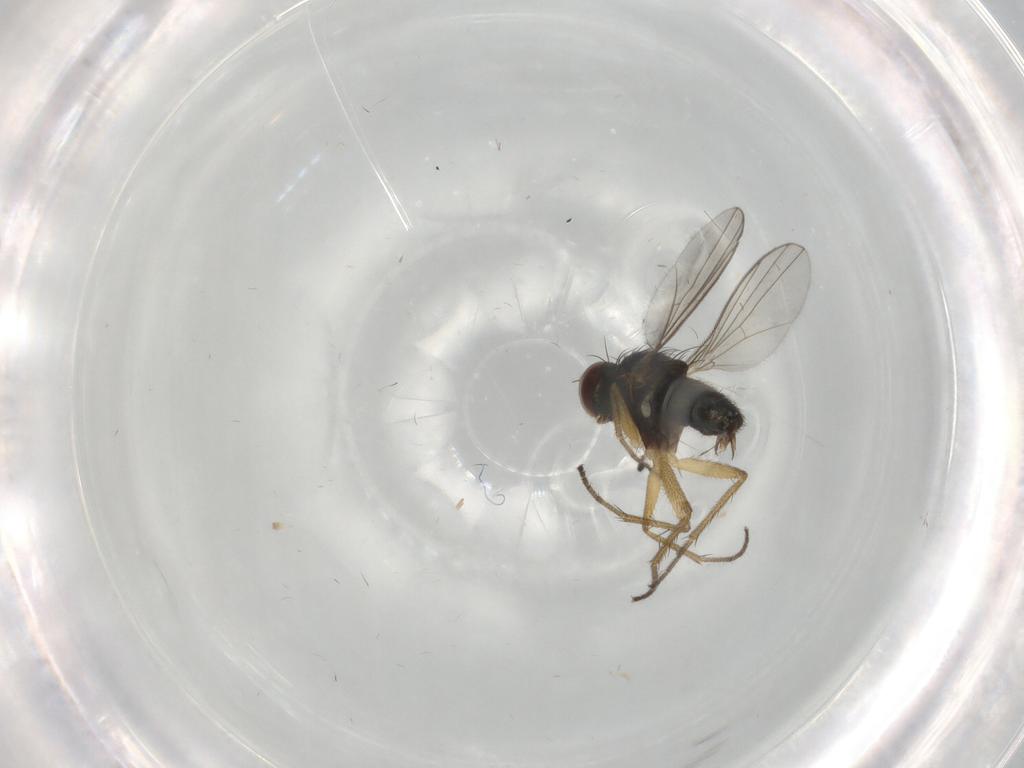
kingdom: Animalia
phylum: Arthropoda
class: Insecta
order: Diptera
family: Dolichopodidae
